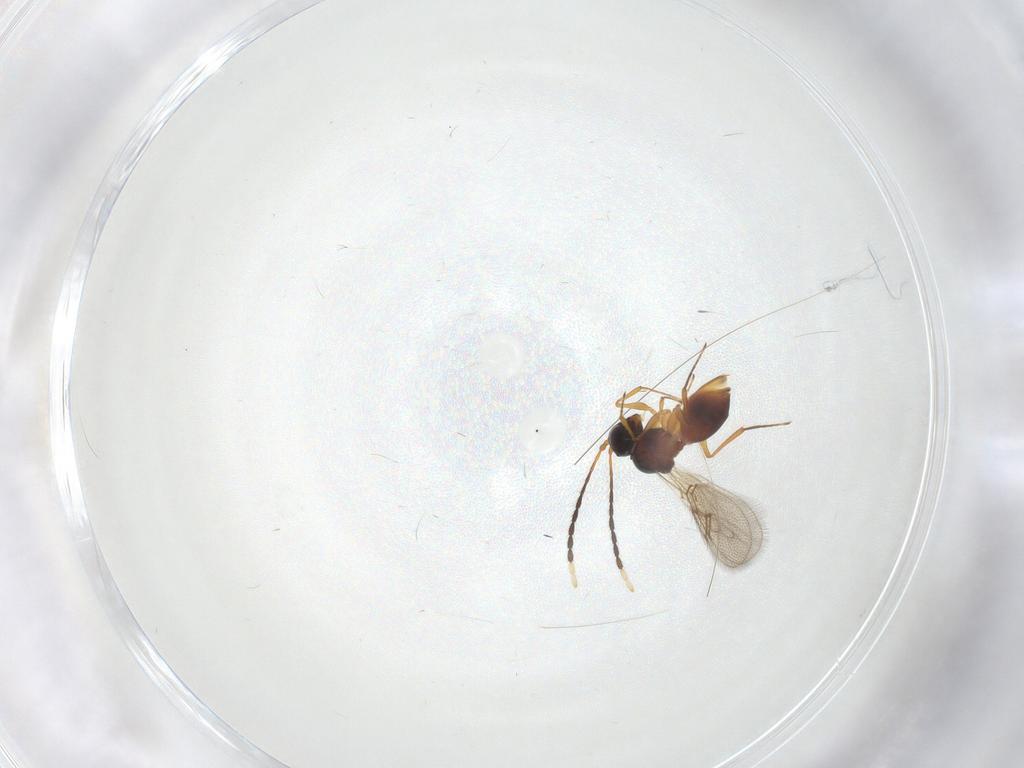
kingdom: Animalia
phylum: Arthropoda
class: Insecta
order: Hymenoptera
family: Figitidae
